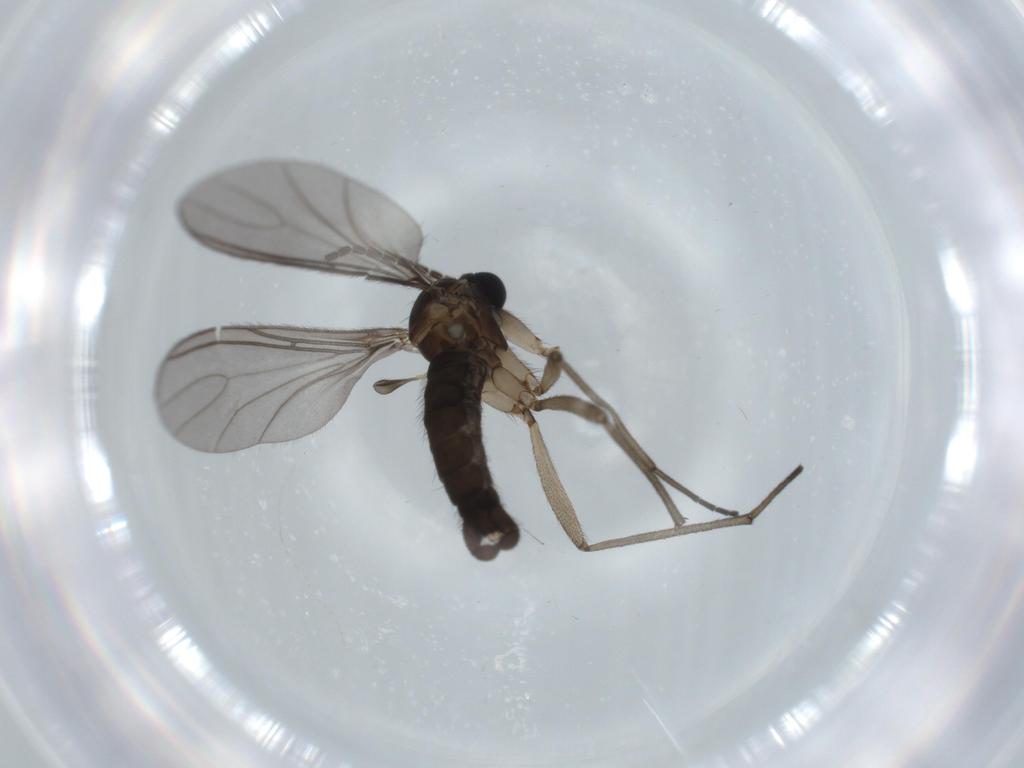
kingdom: Animalia
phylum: Arthropoda
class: Insecta
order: Diptera
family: Sciaridae
